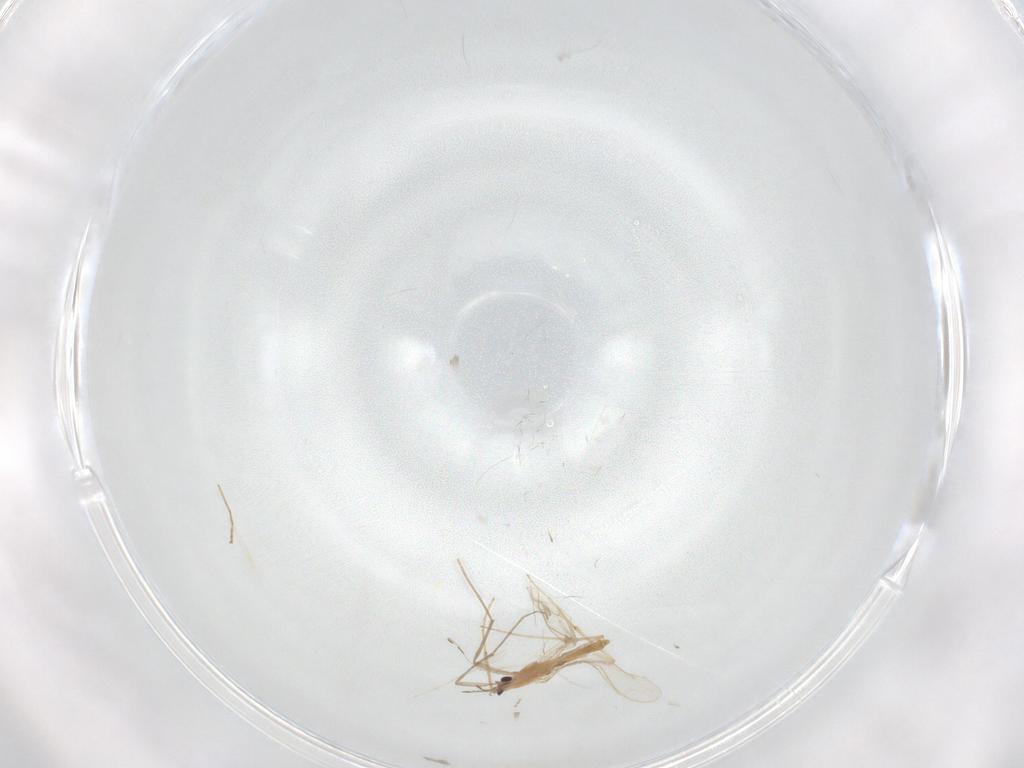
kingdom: Animalia
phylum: Arthropoda
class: Insecta
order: Diptera
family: Chironomidae
